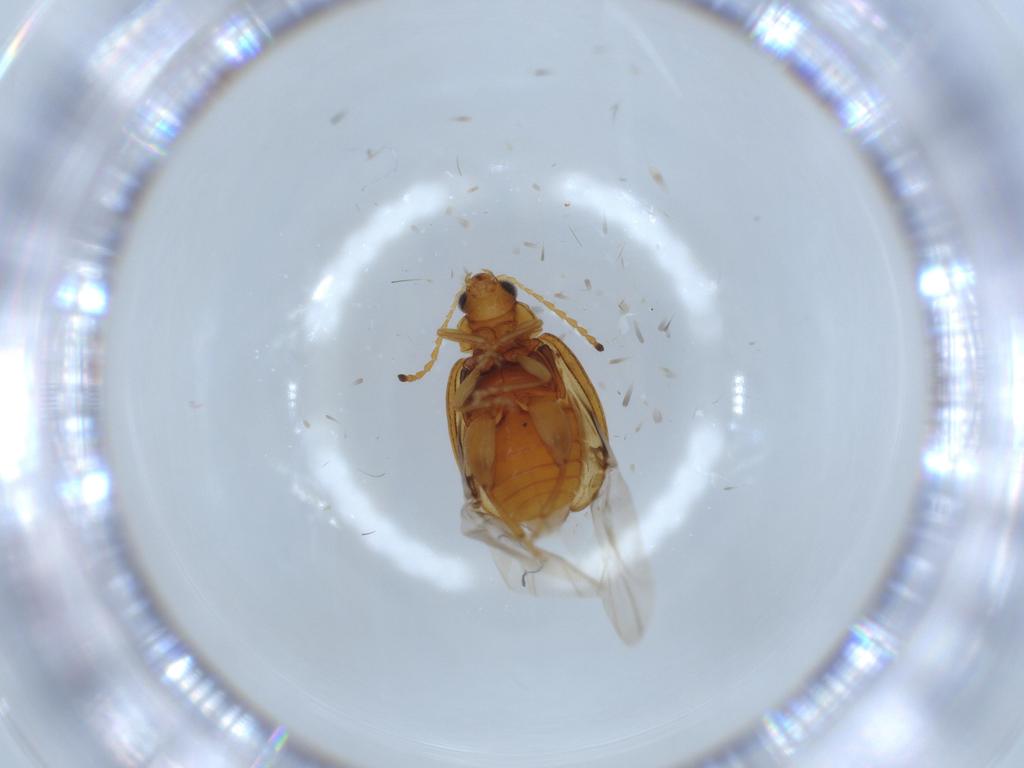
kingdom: Animalia
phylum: Arthropoda
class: Insecta
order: Coleoptera
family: Chrysomelidae
